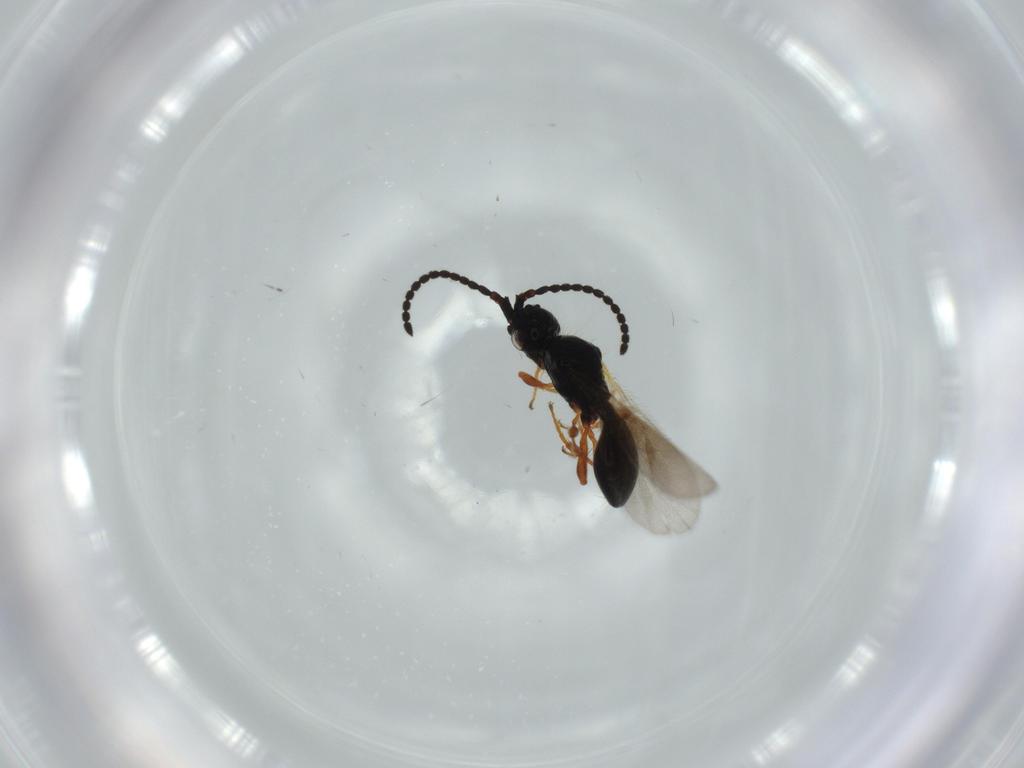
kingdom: Animalia
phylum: Arthropoda
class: Insecta
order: Hymenoptera
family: Diapriidae
